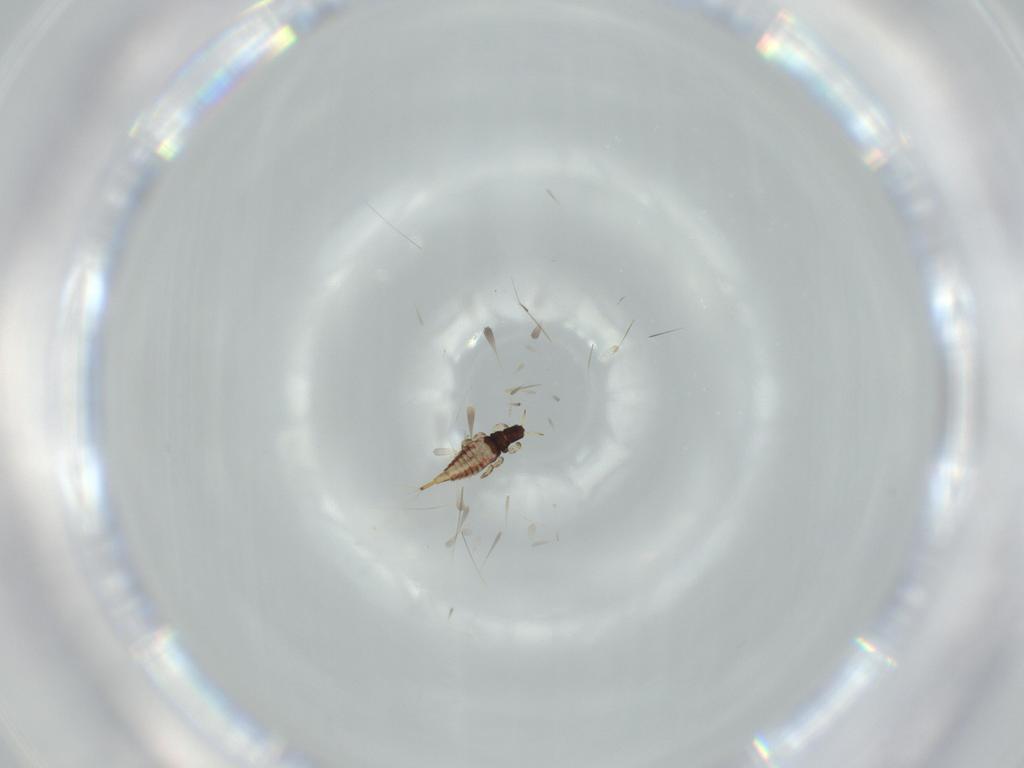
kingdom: Animalia
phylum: Arthropoda
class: Insecta
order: Thysanoptera
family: Phlaeothripidae
